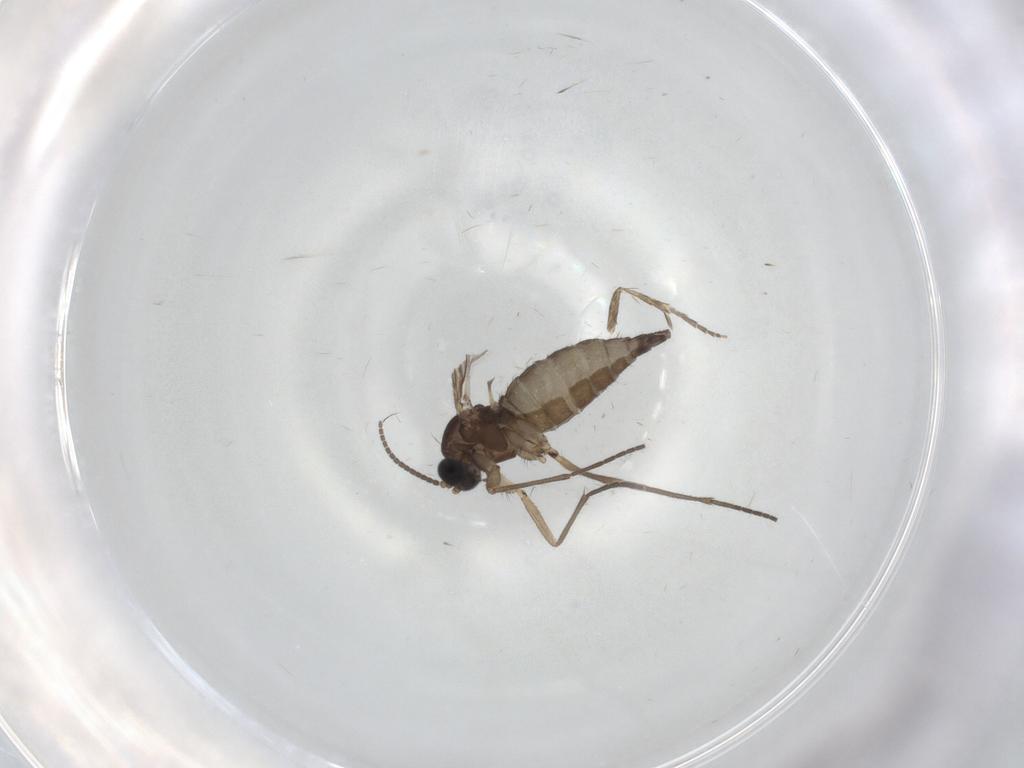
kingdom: Animalia
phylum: Arthropoda
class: Insecta
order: Diptera
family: Sciaridae
